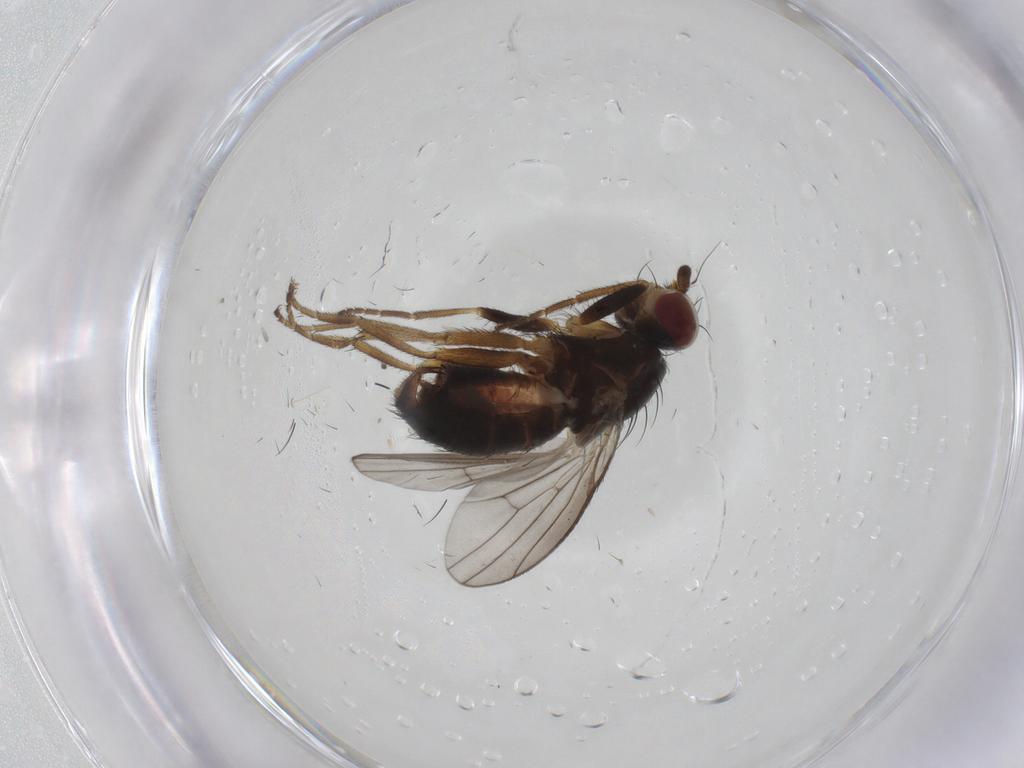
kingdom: Animalia
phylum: Arthropoda
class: Insecta
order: Diptera
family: Heleomyzidae
